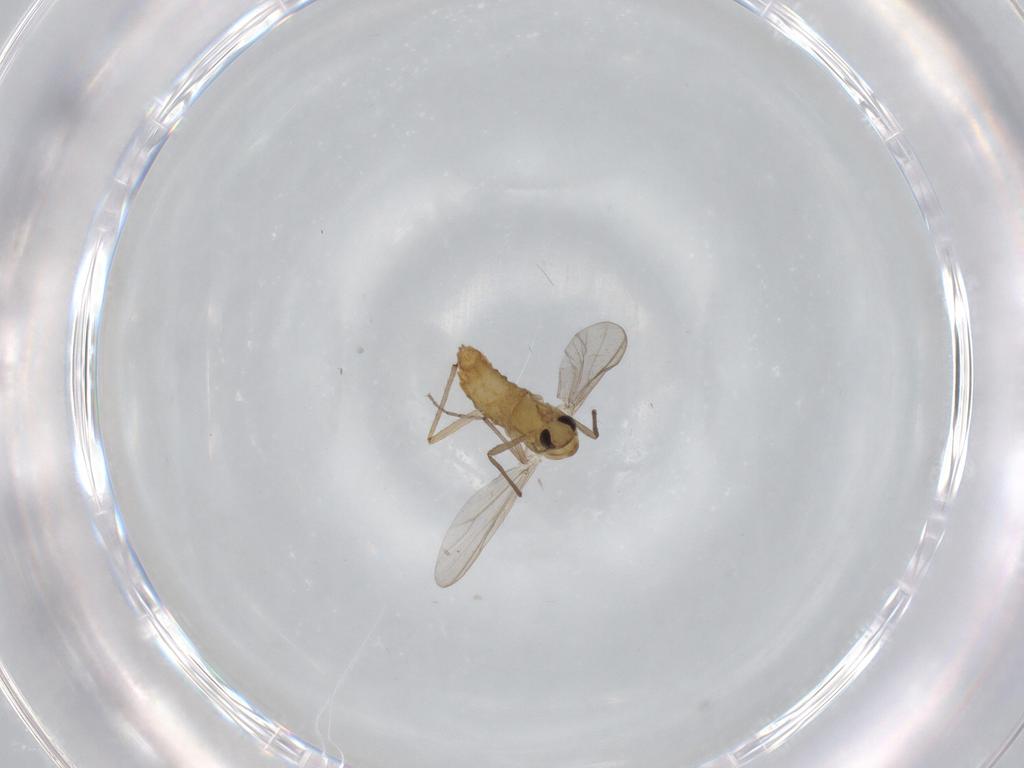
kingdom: Animalia
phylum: Arthropoda
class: Insecta
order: Diptera
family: Chironomidae
